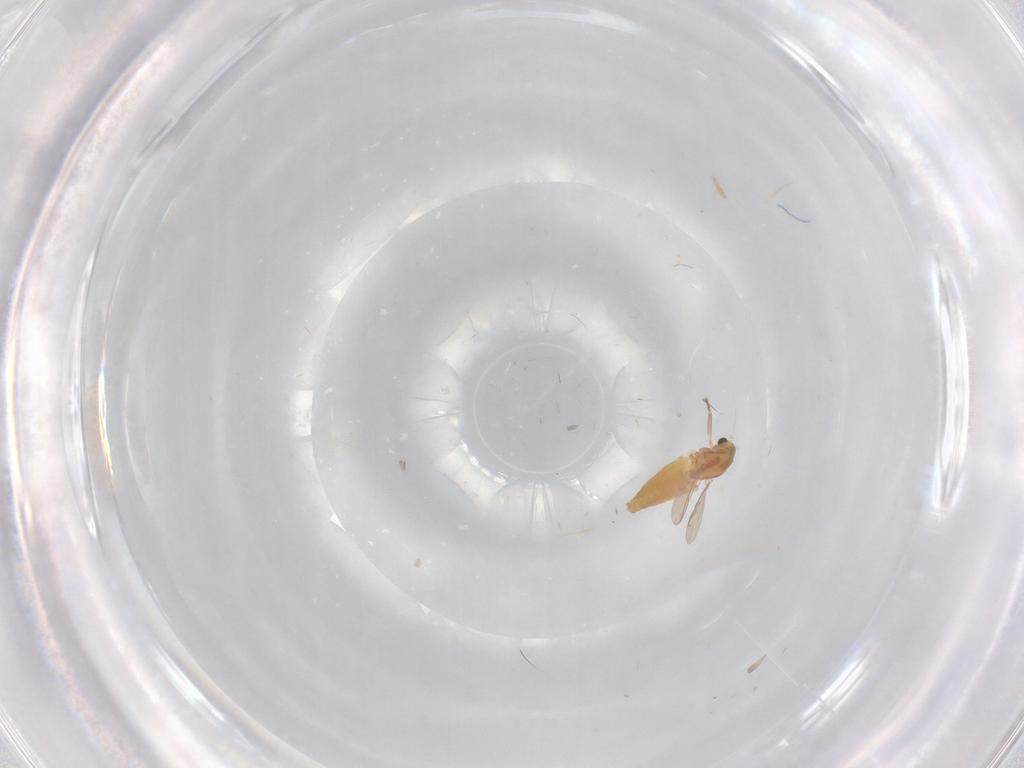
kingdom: Animalia
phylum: Arthropoda
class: Insecta
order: Diptera
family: Chironomidae
